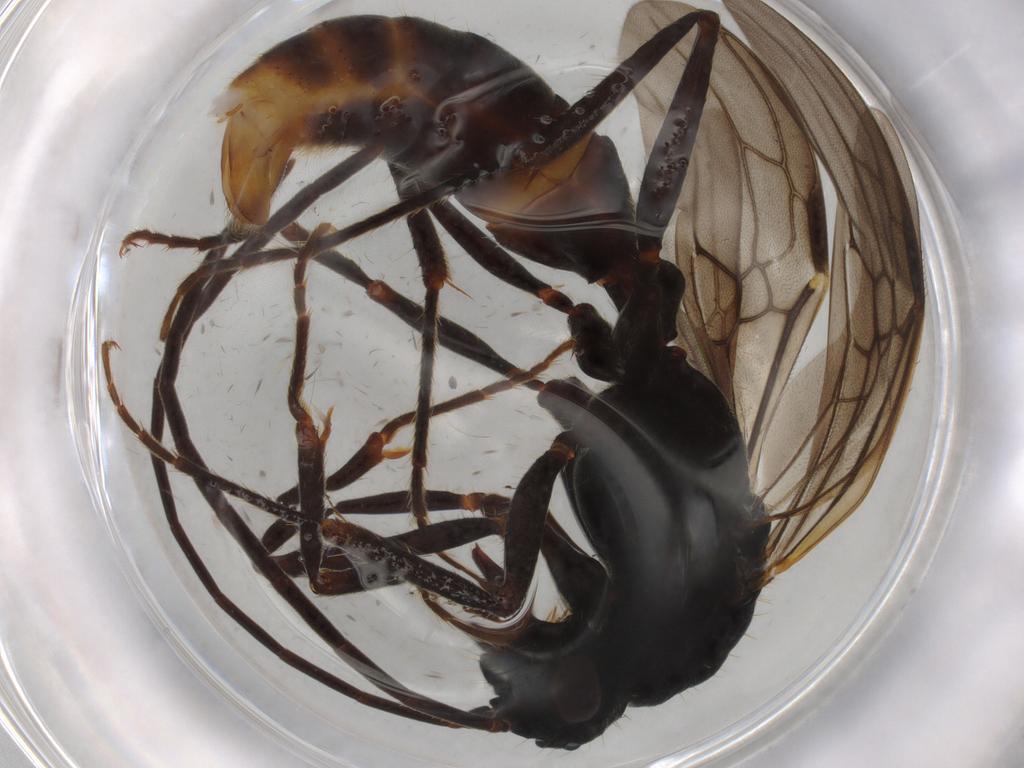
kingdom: Animalia
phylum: Arthropoda
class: Insecta
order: Hymenoptera
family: Formicidae
